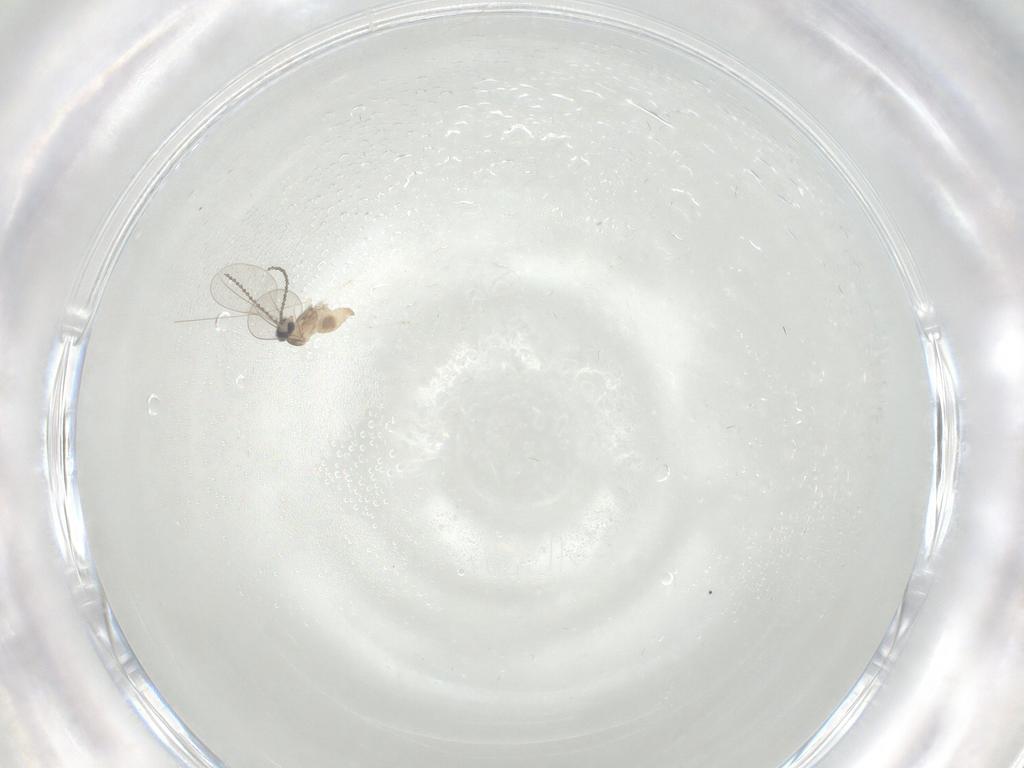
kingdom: Animalia
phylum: Arthropoda
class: Insecta
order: Diptera
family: Cecidomyiidae
